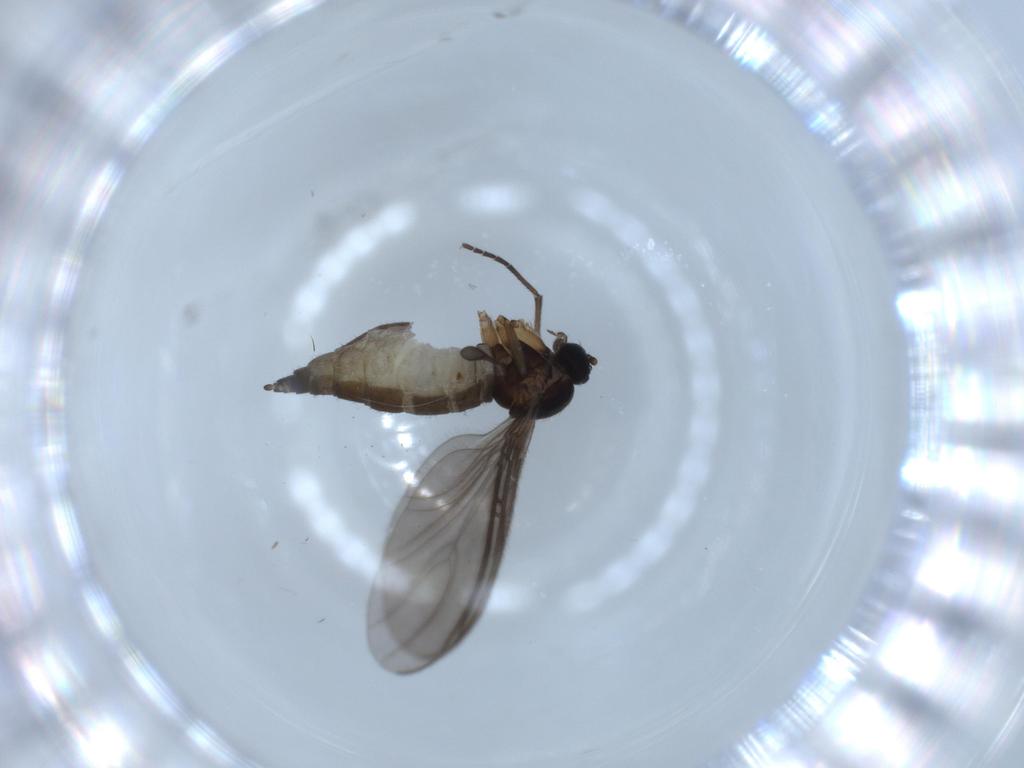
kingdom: Animalia
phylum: Arthropoda
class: Insecta
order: Diptera
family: Sciaridae
